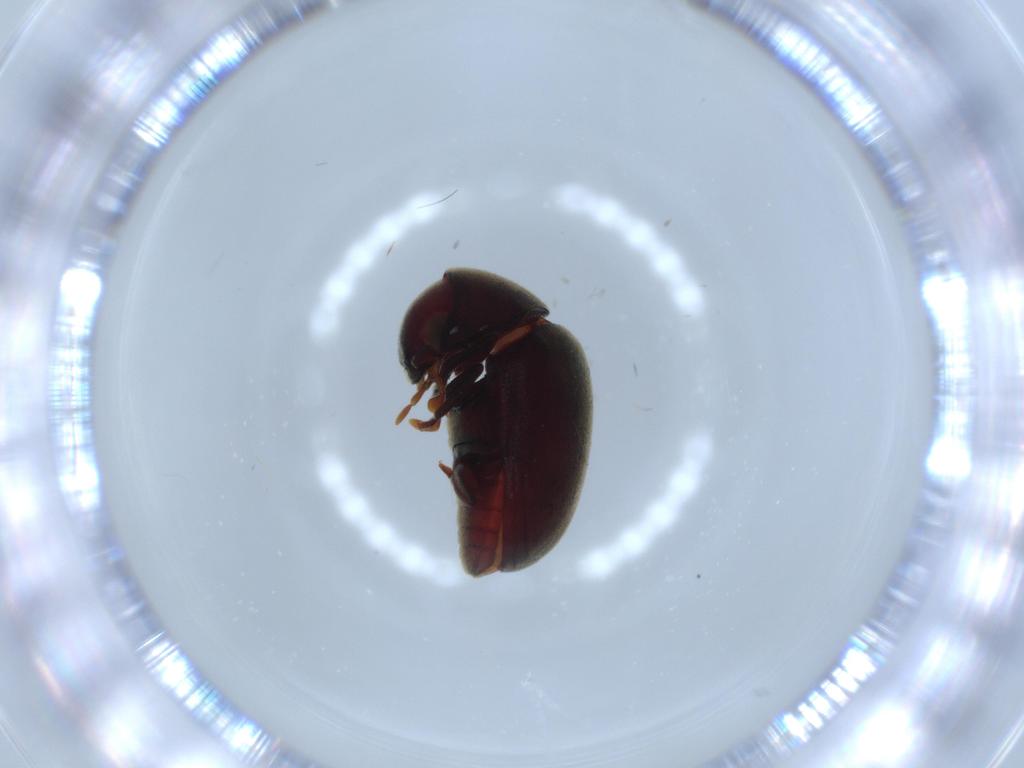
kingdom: Animalia
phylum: Arthropoda
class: Insecta
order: Coleoptera
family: Ptinidae
